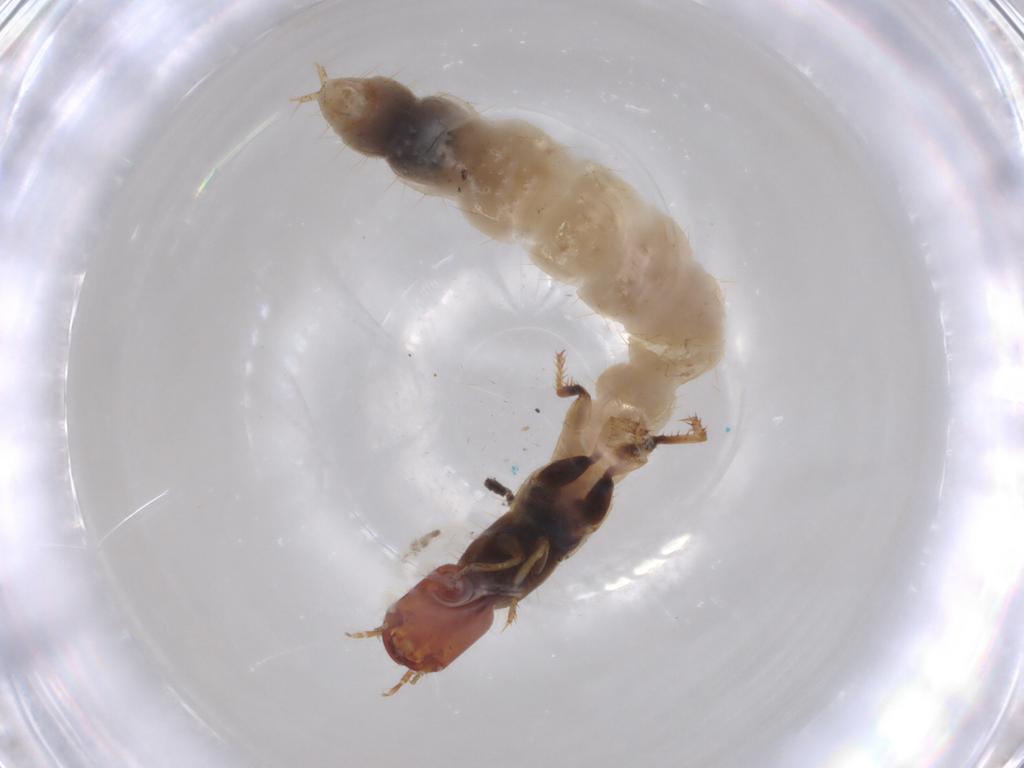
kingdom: Animalia
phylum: Arthropoda
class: Insecta
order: Coleoptera
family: Staphylinidae
